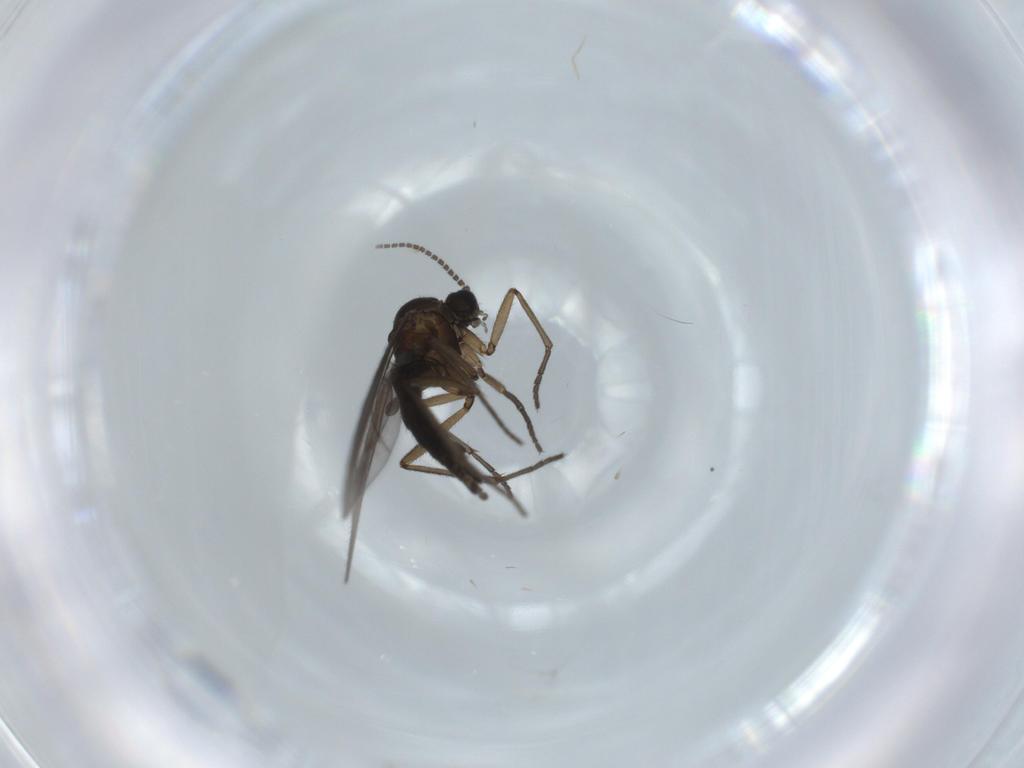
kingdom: Animalia
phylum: Arthropoda
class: Insecta
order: Diptera
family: Sciaridae
